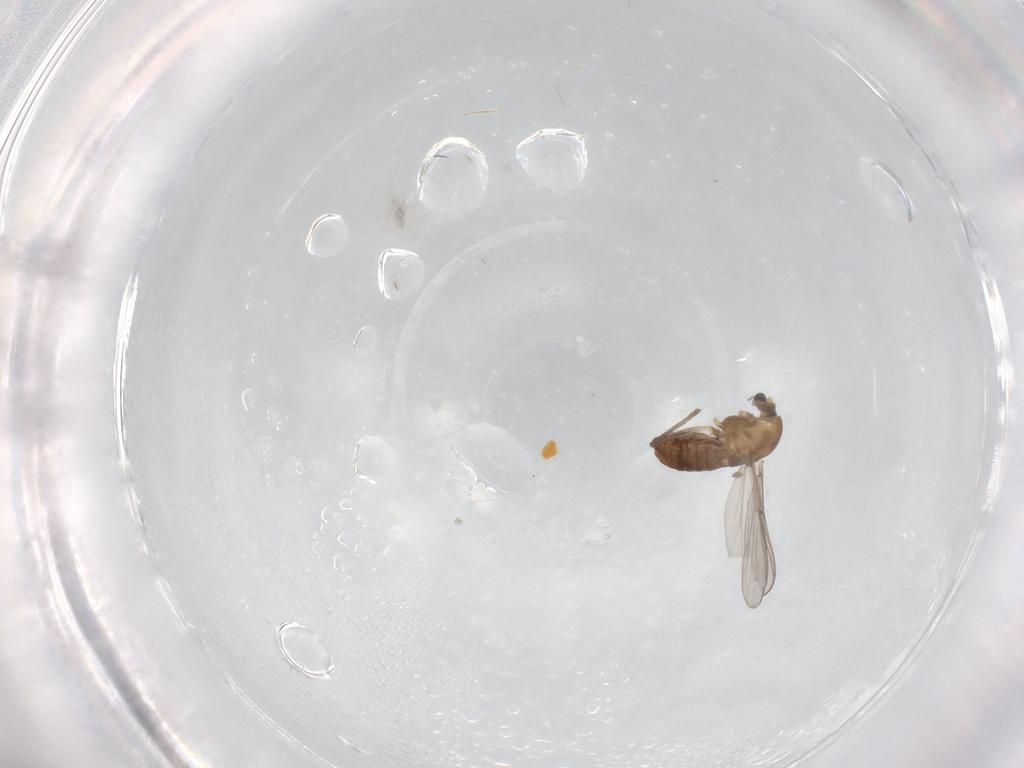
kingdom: Animalia
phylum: Arthropoda
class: Insecta
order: Diptera
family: Chironomidae
